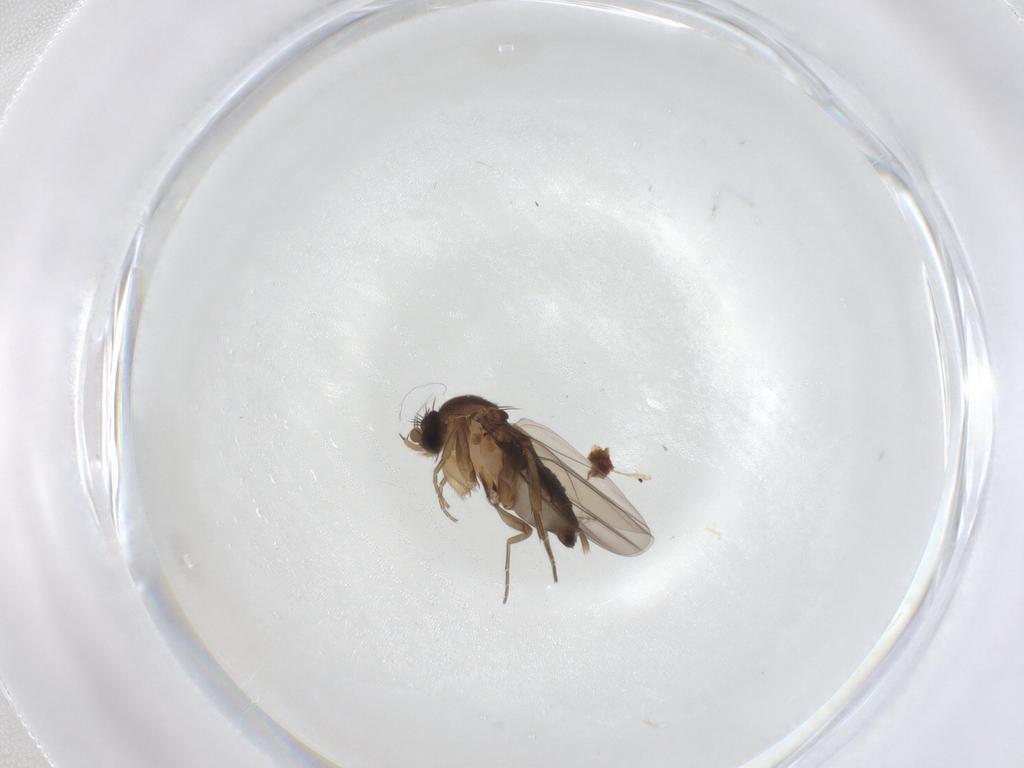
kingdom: Animalia
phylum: Arthropoda
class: Insecta
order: Diptera
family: Phoridae
